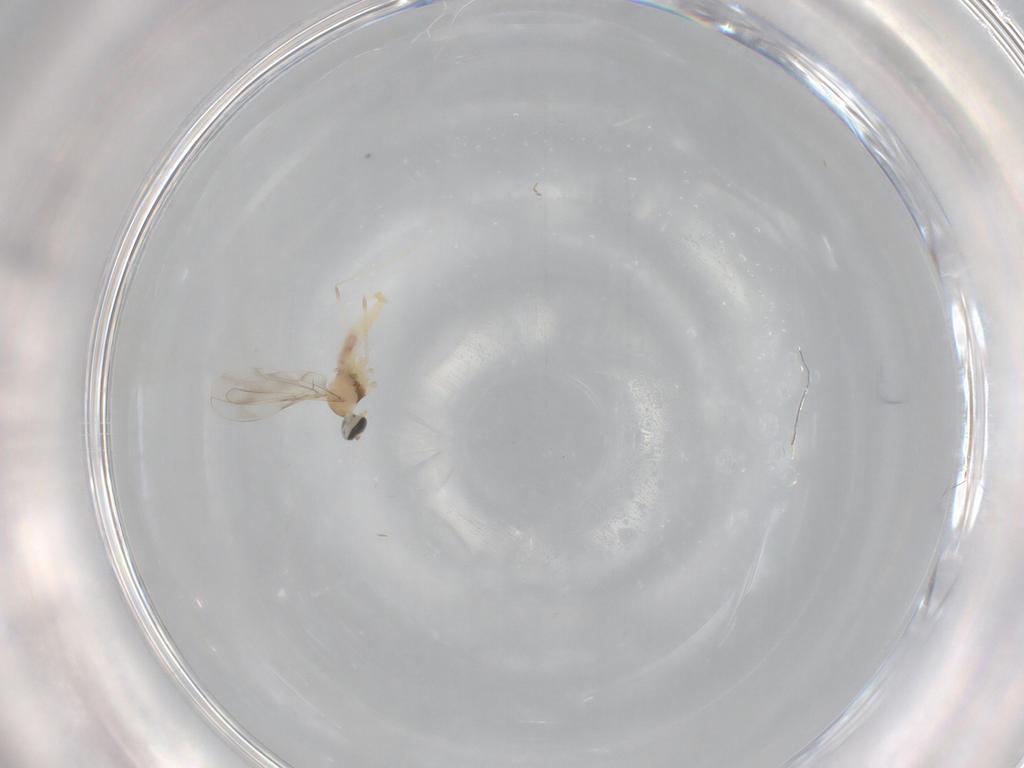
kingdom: Animalia
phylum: Arthropoda
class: Insecta
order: Diptera
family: Cecidomyiidae
